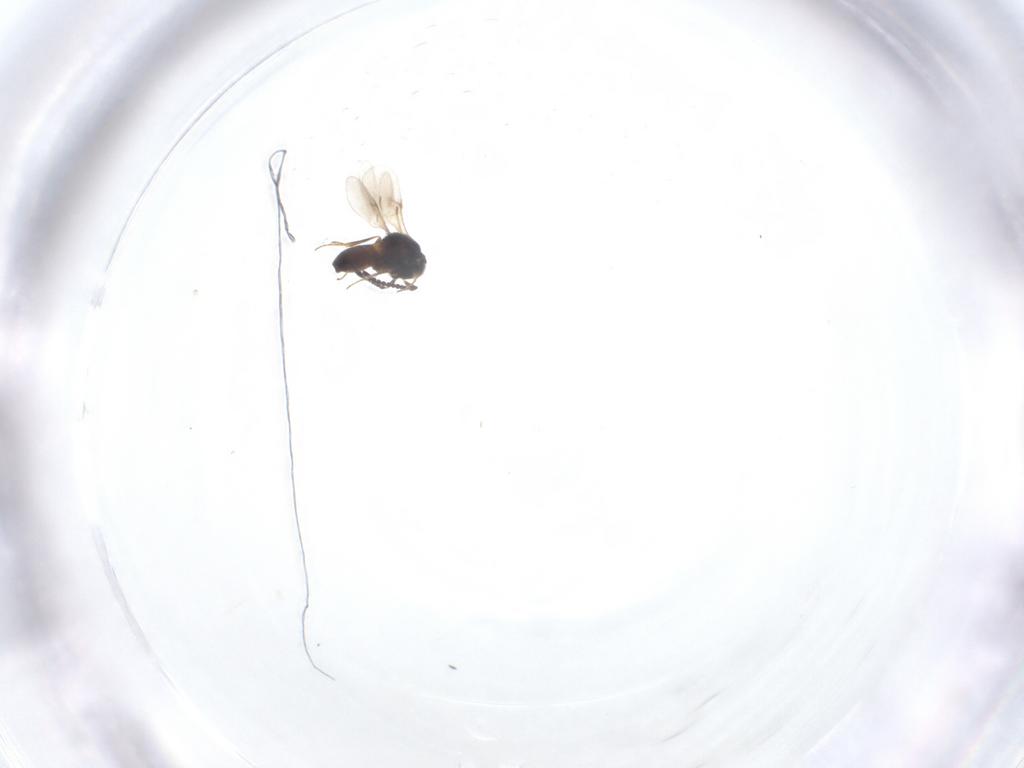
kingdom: Animalia
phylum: Arthropoda
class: Insecta
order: Hymenoptera
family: Scelionidae
